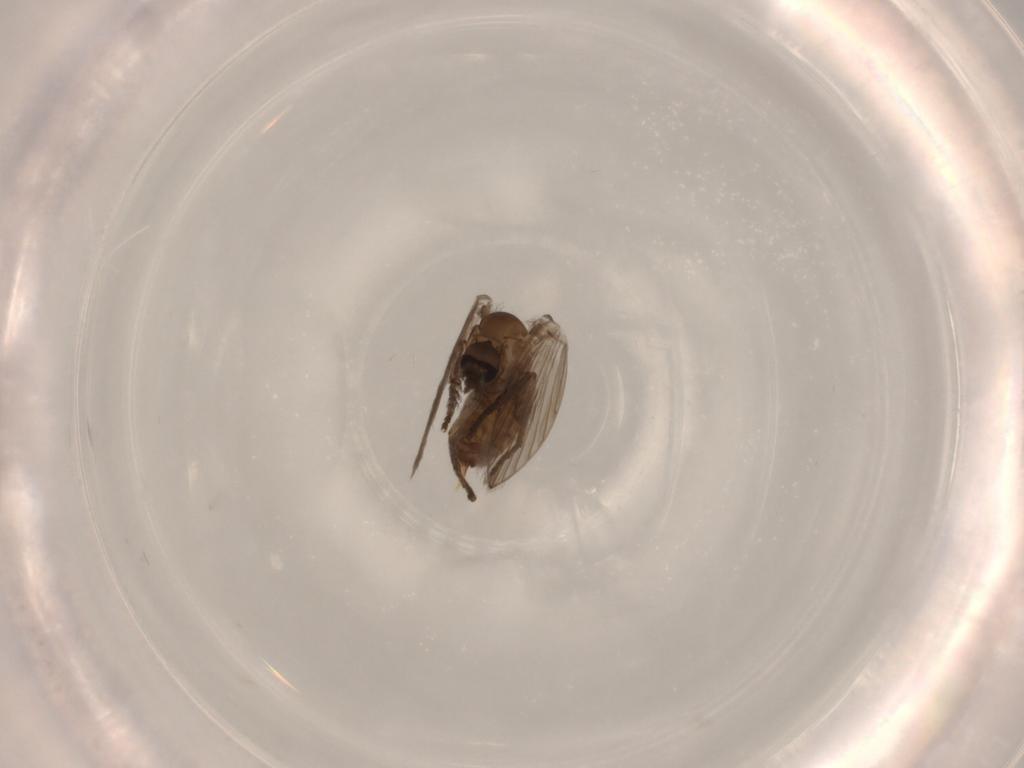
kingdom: Animalia
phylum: Arthropoda
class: Insecta
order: Diptera
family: Psychodidae
